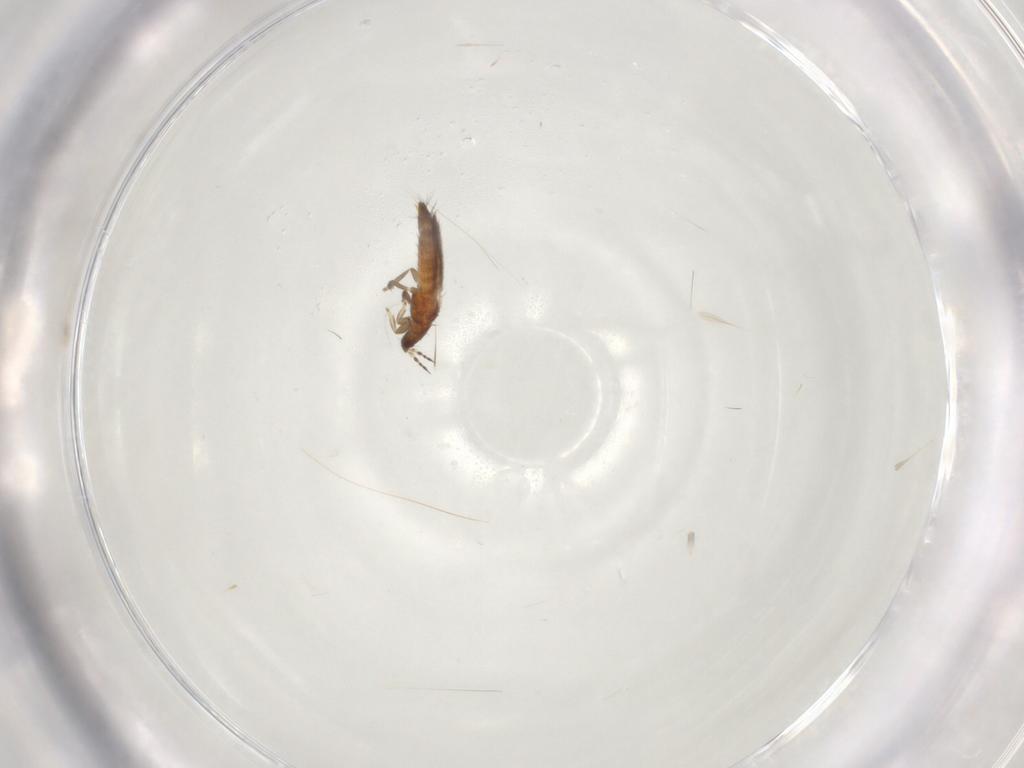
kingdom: Animalia
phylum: Arthropoda
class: Insecta
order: Thysanoptera
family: Thripidae
